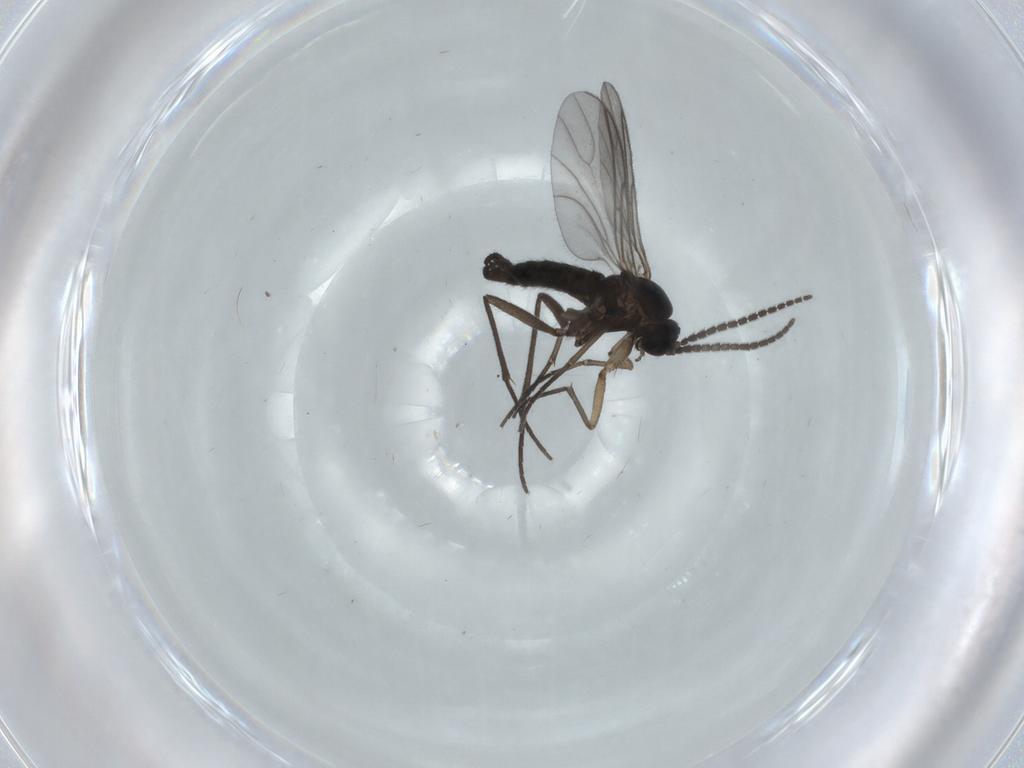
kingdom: Animalia
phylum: Arthropoda
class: Insecta
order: Diptera
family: Sciaridae
